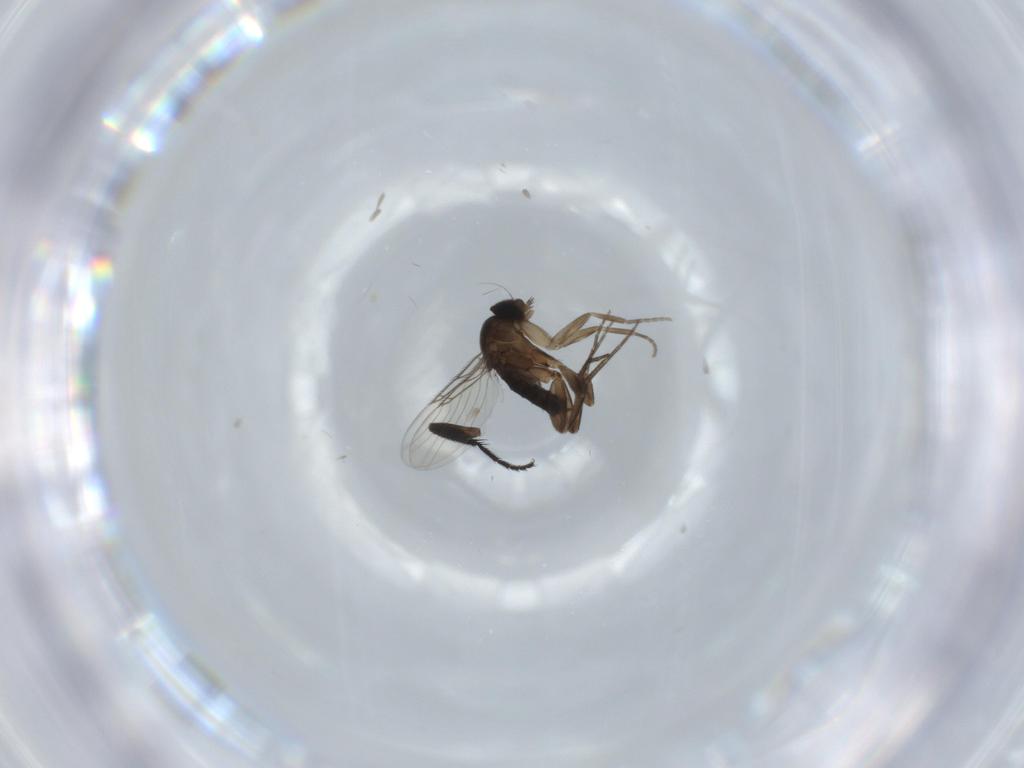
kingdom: Animalia
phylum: Arthropoda
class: Insecta
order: Diptera
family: Phoridae
